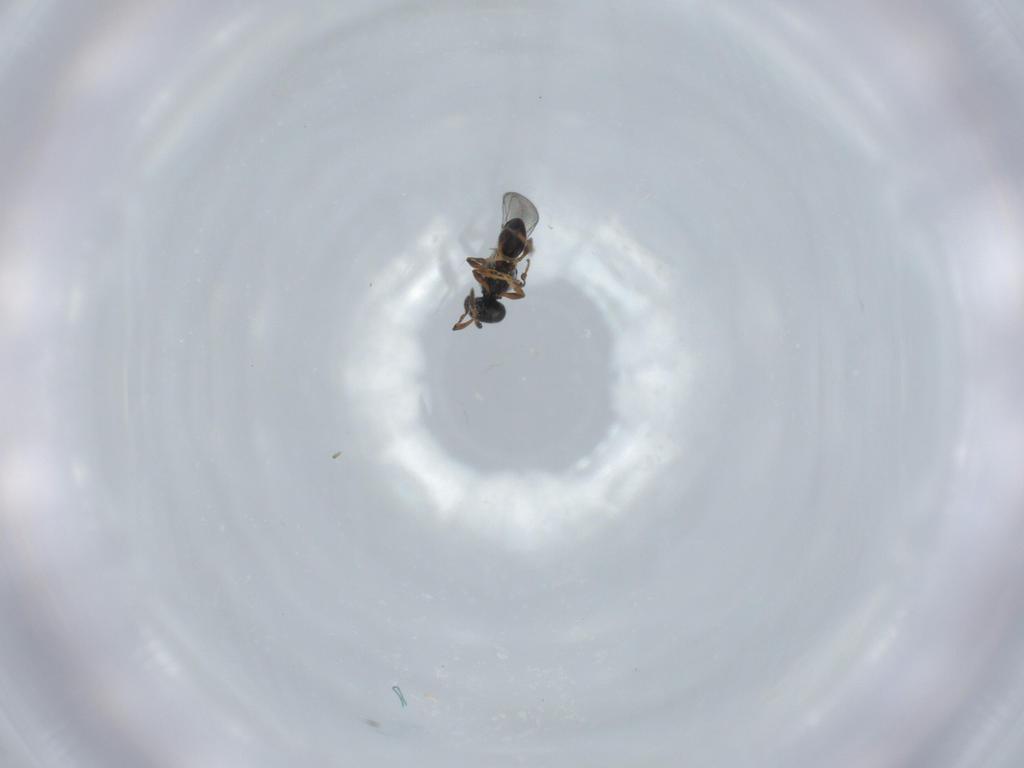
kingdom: Animalia
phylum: Arthropoda
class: Insecta
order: Hymenoptera
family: Platygastridae
